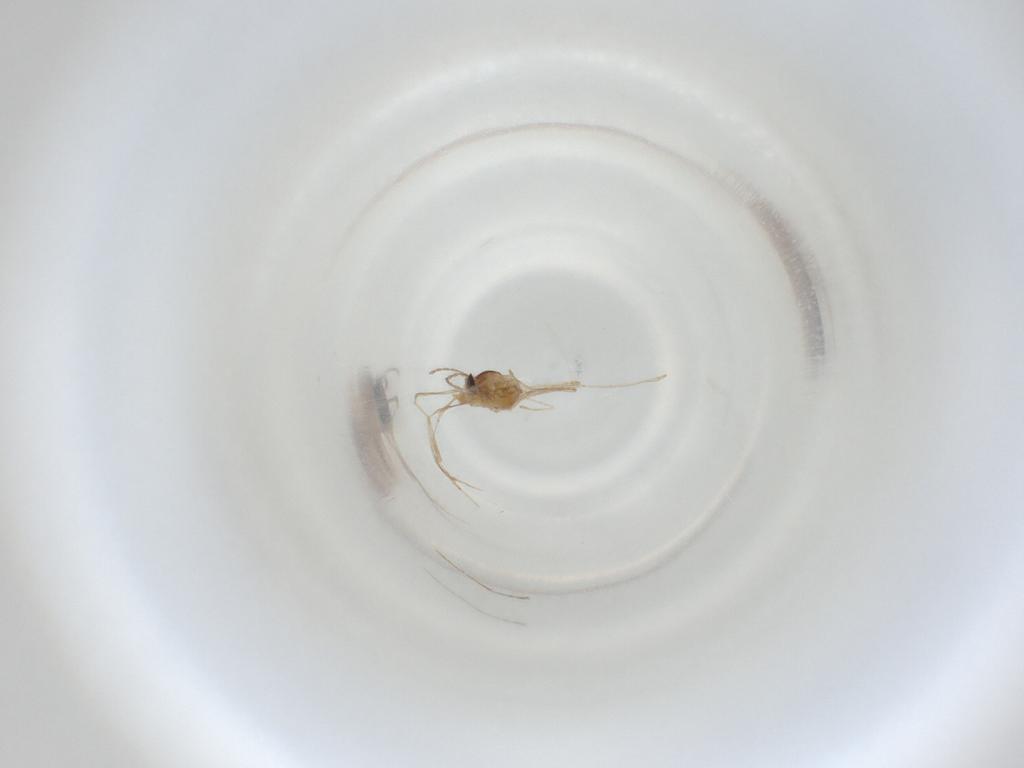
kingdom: Animalia
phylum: Arthropoda
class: Insecta
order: Diptera
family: Cecidomyiidae
